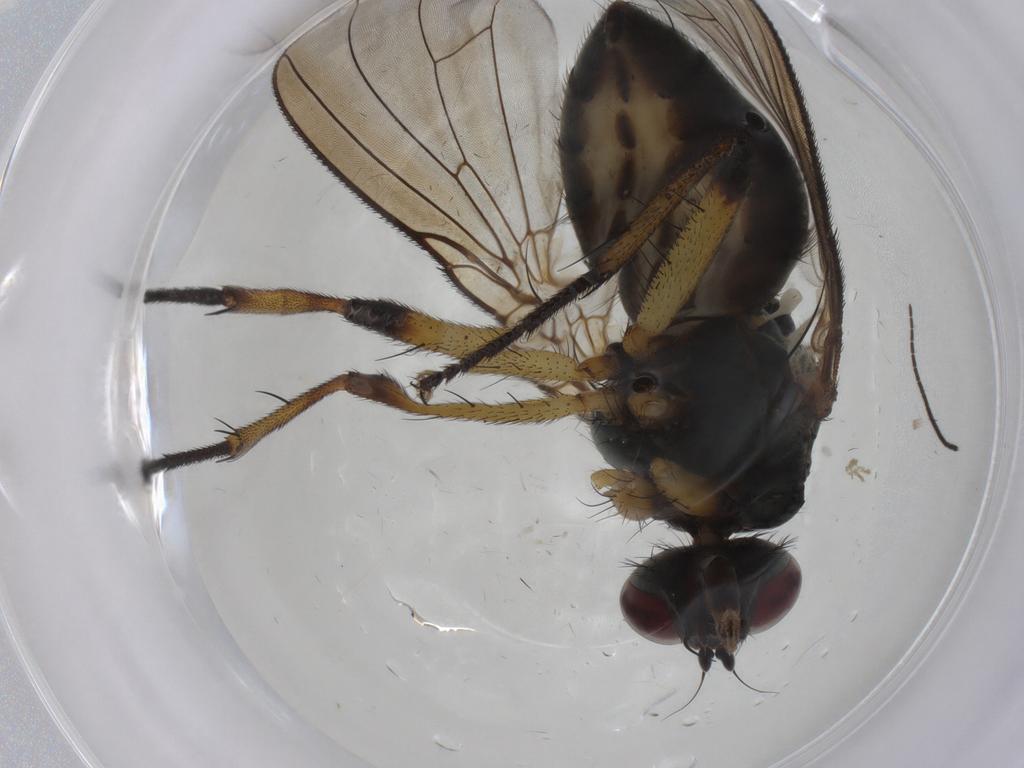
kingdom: Animalia
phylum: Arthropoda
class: Insecta
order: Diptera
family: Muscidae
